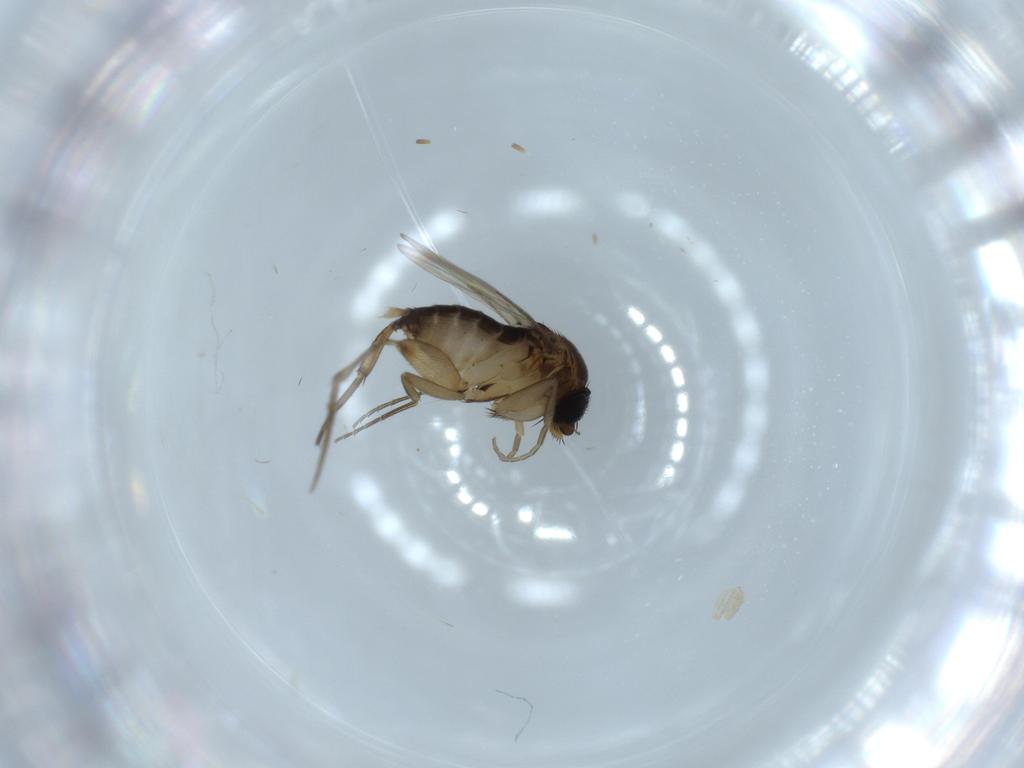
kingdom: Animalia
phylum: Arthropoda
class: Insecta
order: Diptera
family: Phoridae
